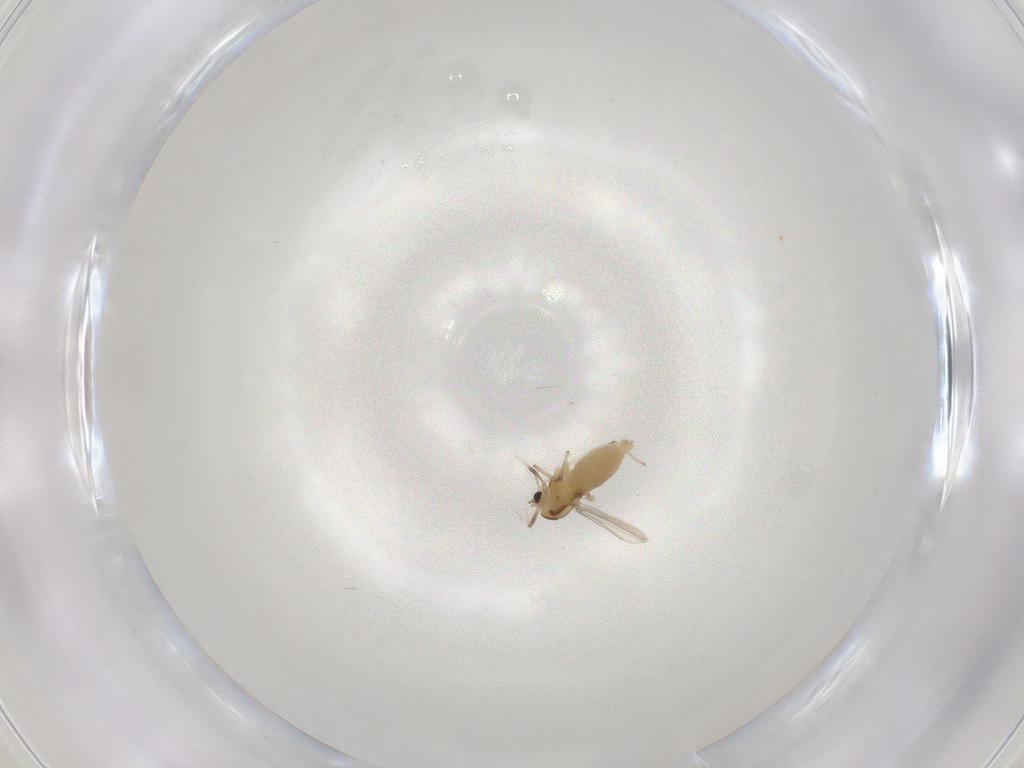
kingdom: Animalia
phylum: Arthropoda
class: Insecta
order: Diptera
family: Chironomidae
